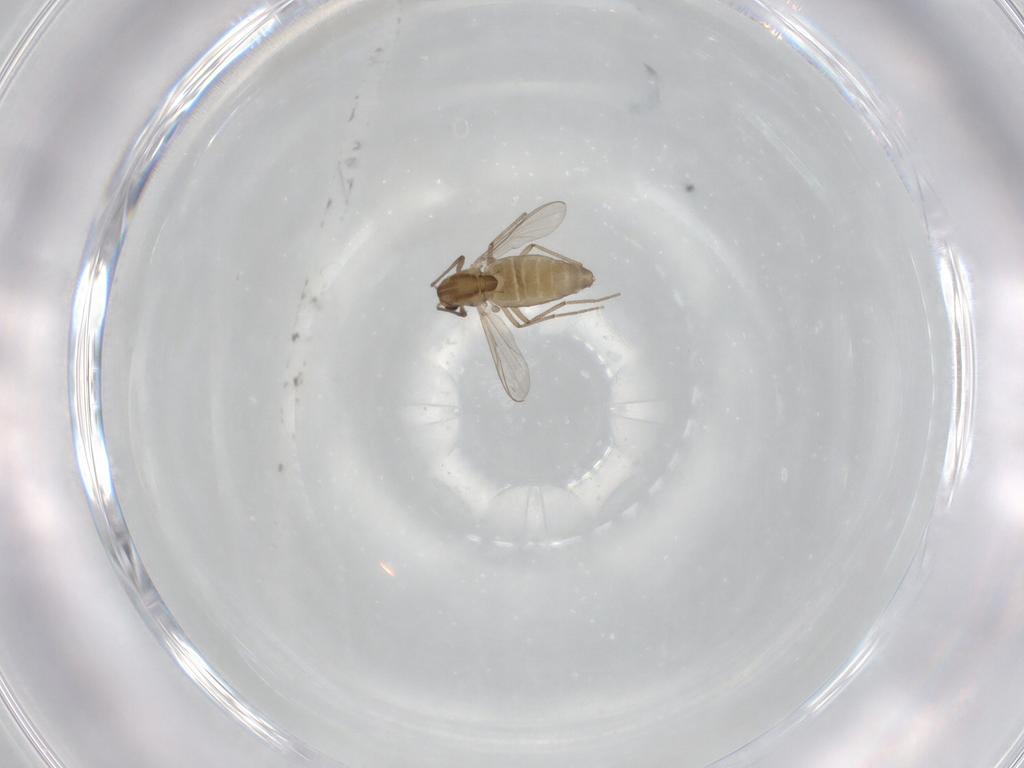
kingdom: Animalia
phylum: Arthropoda
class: Insecta
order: Diptera
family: Chironomidae
